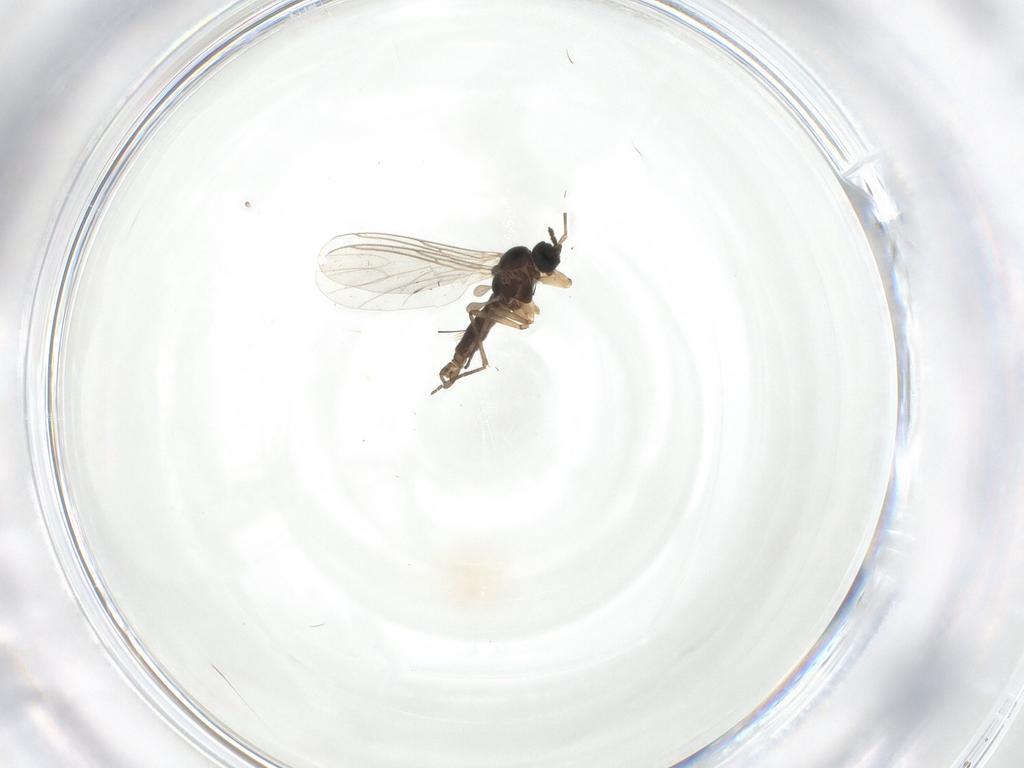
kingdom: Animalia
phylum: Arthropoda
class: Insecta
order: Diptera
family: Sciaridae
